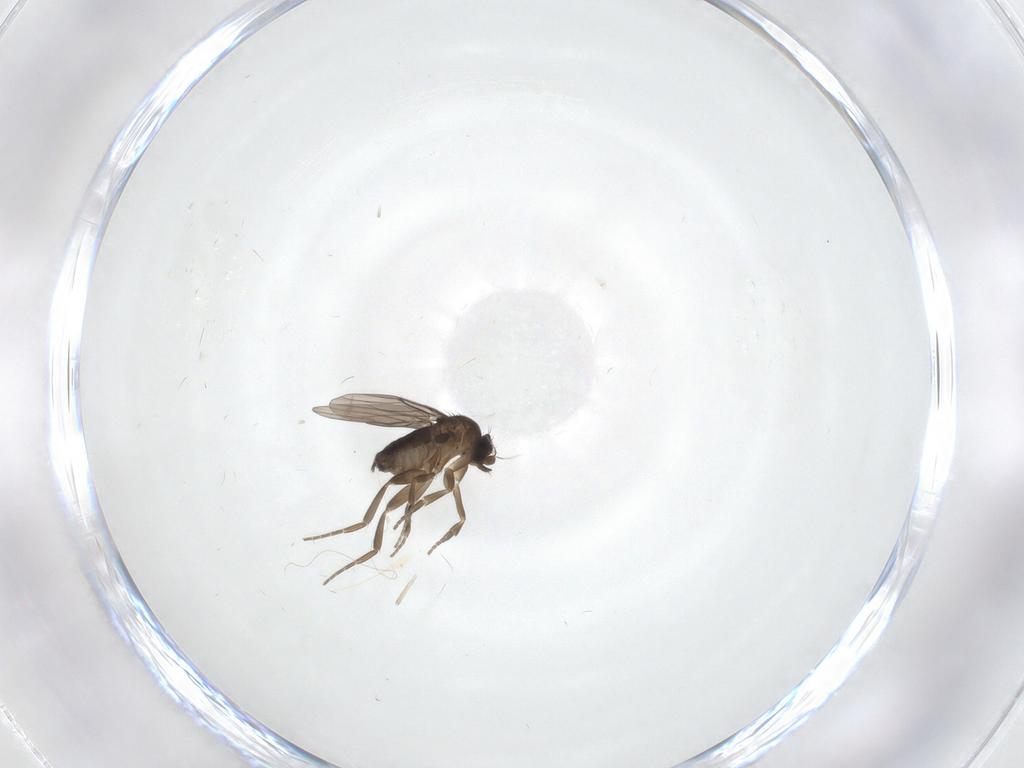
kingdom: Animalia
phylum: Arthropoda
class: Insecta
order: Diptera
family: Phoridae
